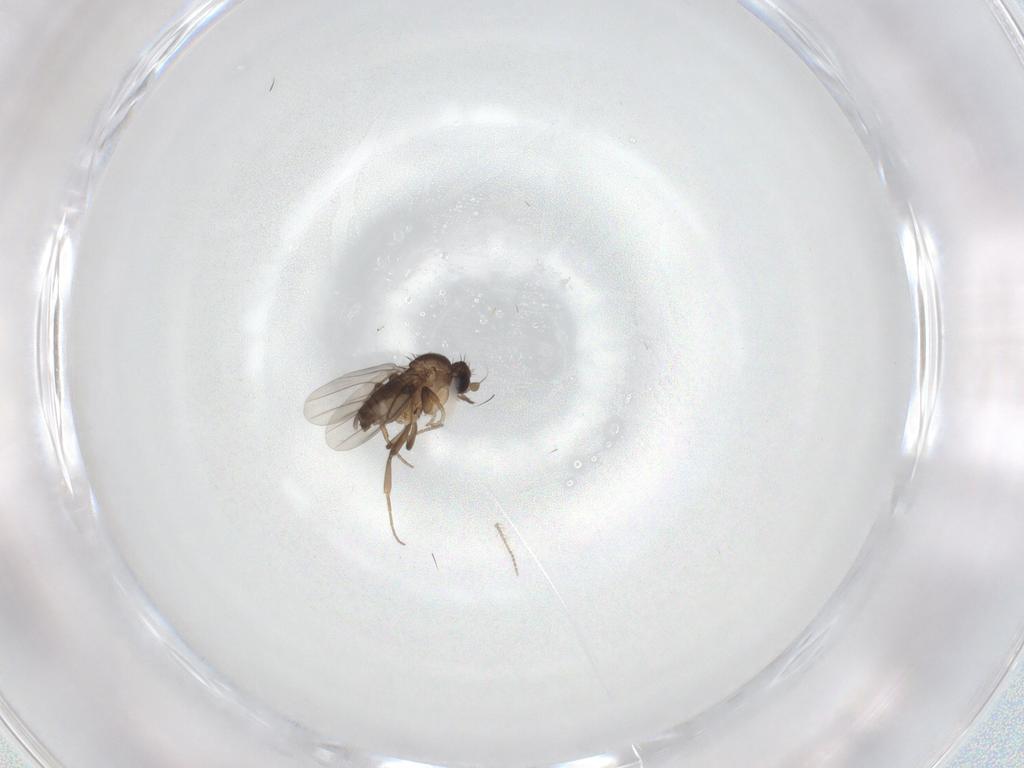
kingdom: Animalia
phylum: Arthropoda
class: Insecta
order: Diptera
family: Phoridae
